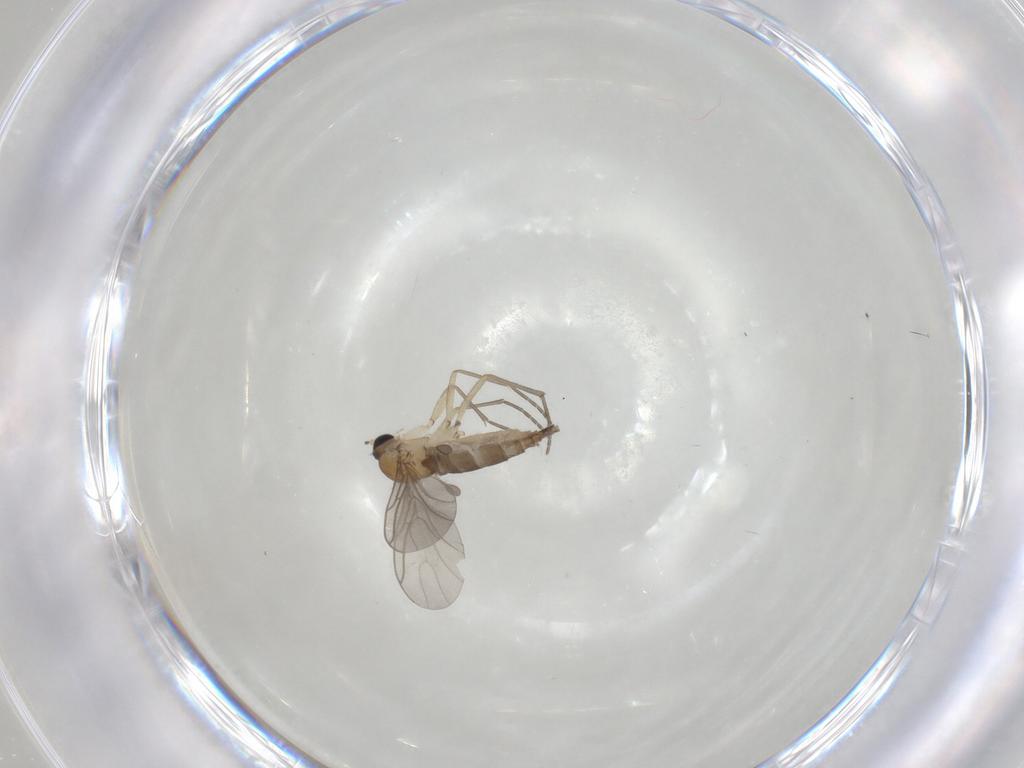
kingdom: Animalia
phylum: Arthropoda
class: Insecta
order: Diptera
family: Sciaridae
